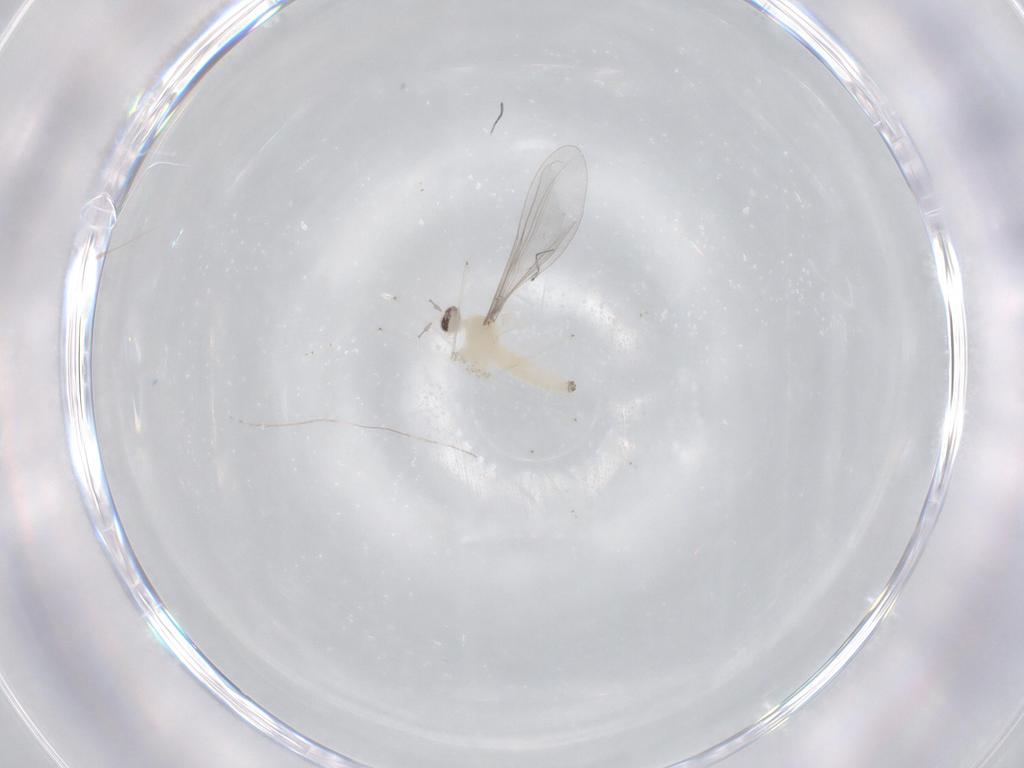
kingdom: Animalia
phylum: Arthropoda
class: Insecta
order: Diptera
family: Cecidomyiidae
